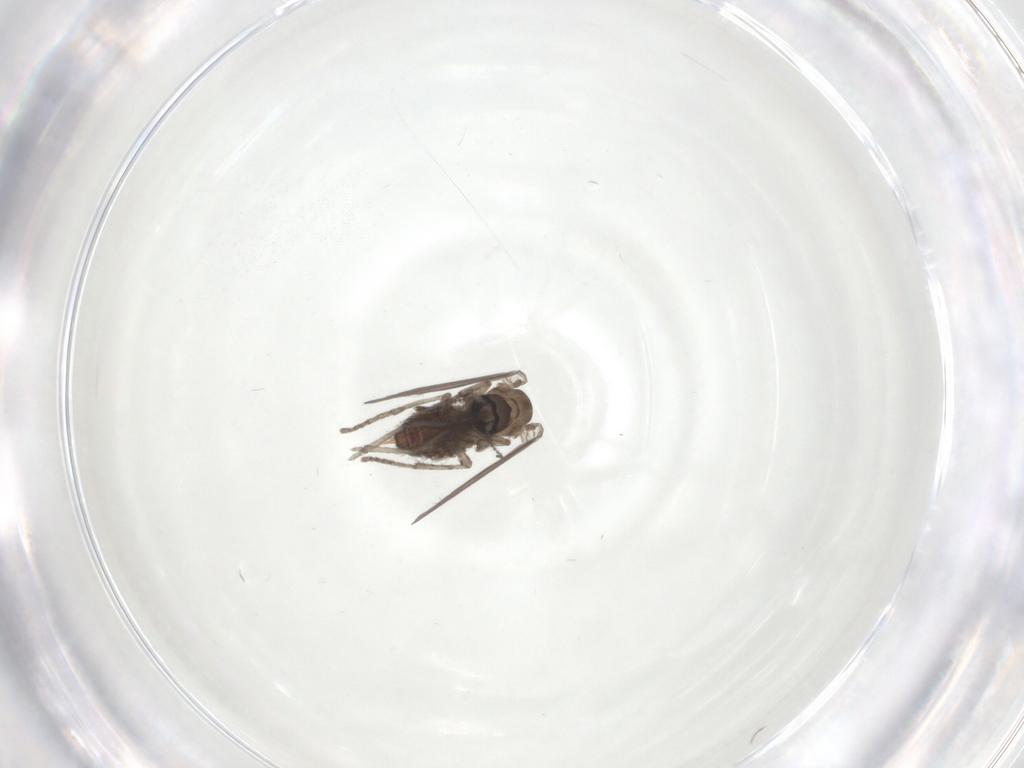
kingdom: Animalia
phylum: Arthropoda
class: Insecta
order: Diptera
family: Psychodidae
